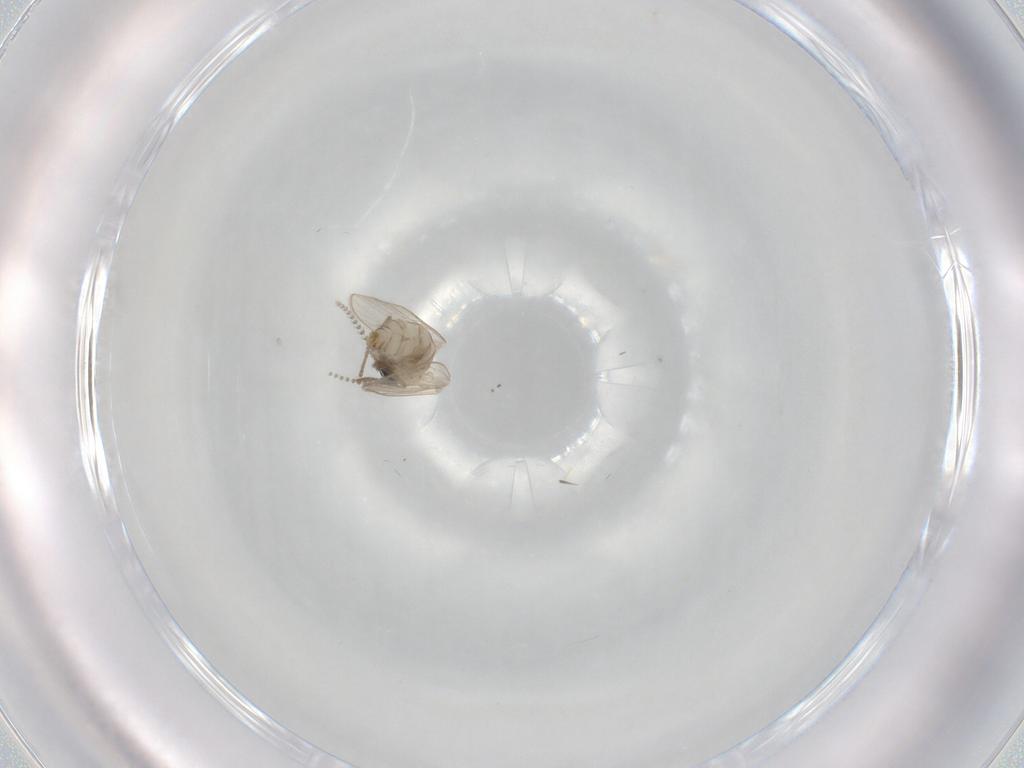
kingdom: Animalia
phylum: Arthropoda
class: Insecta
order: Diptera
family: Psychodidae
